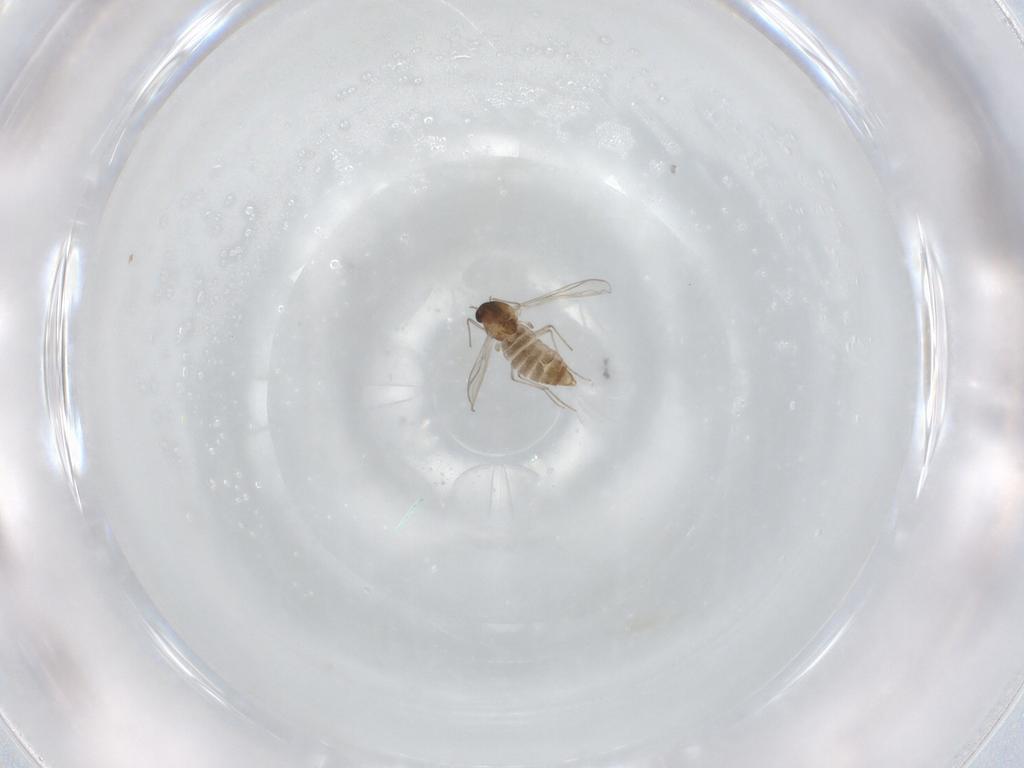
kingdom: Animalia
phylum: Arthropoda
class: Insecta
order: Diptera
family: Chironomidae
